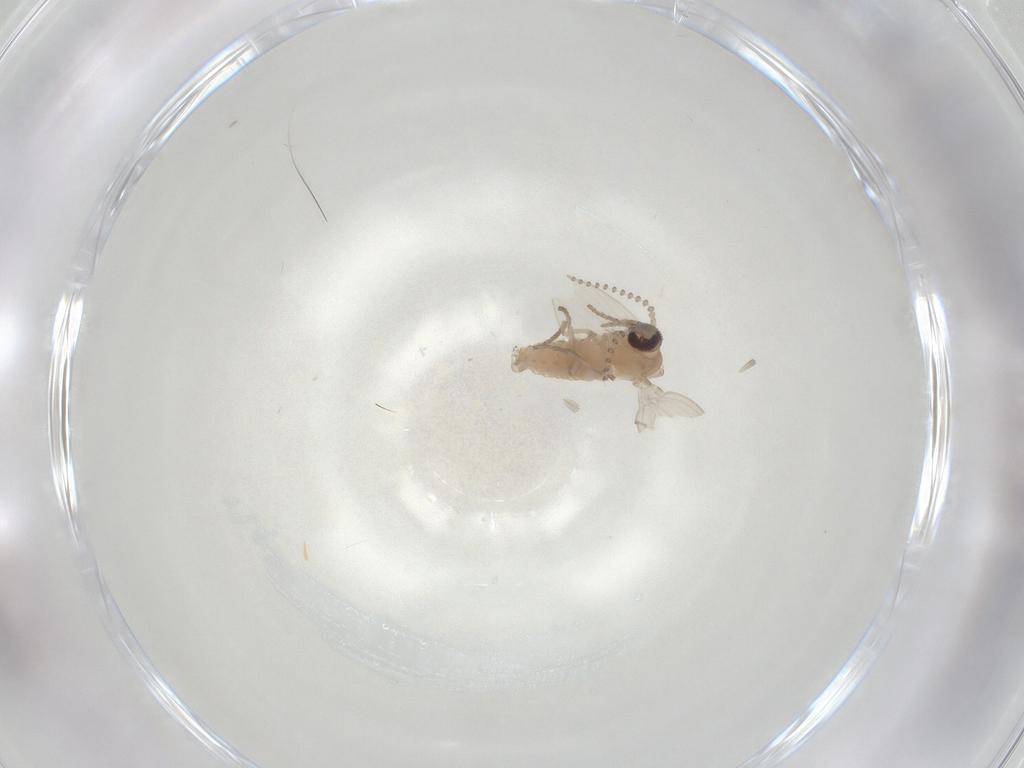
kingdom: Animalia
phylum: Arthropoda
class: Insecta
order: Diptera
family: Psychodidae
